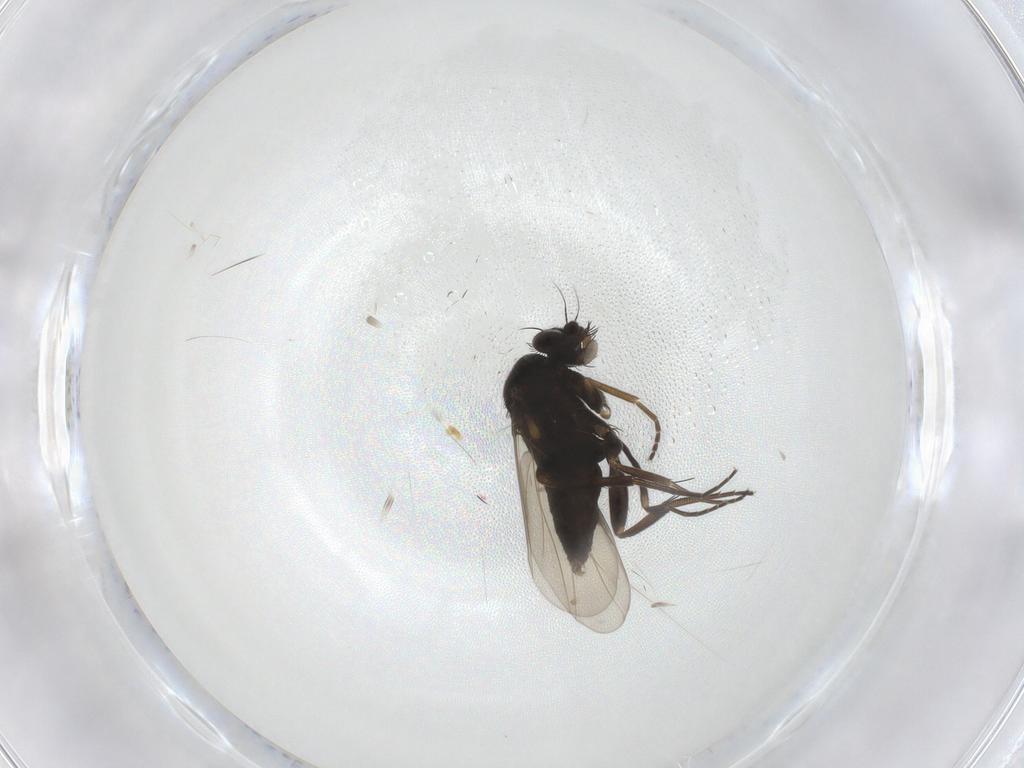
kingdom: Animalia
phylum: Arthropoda
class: Insecta
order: Diptera
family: Phoridae
